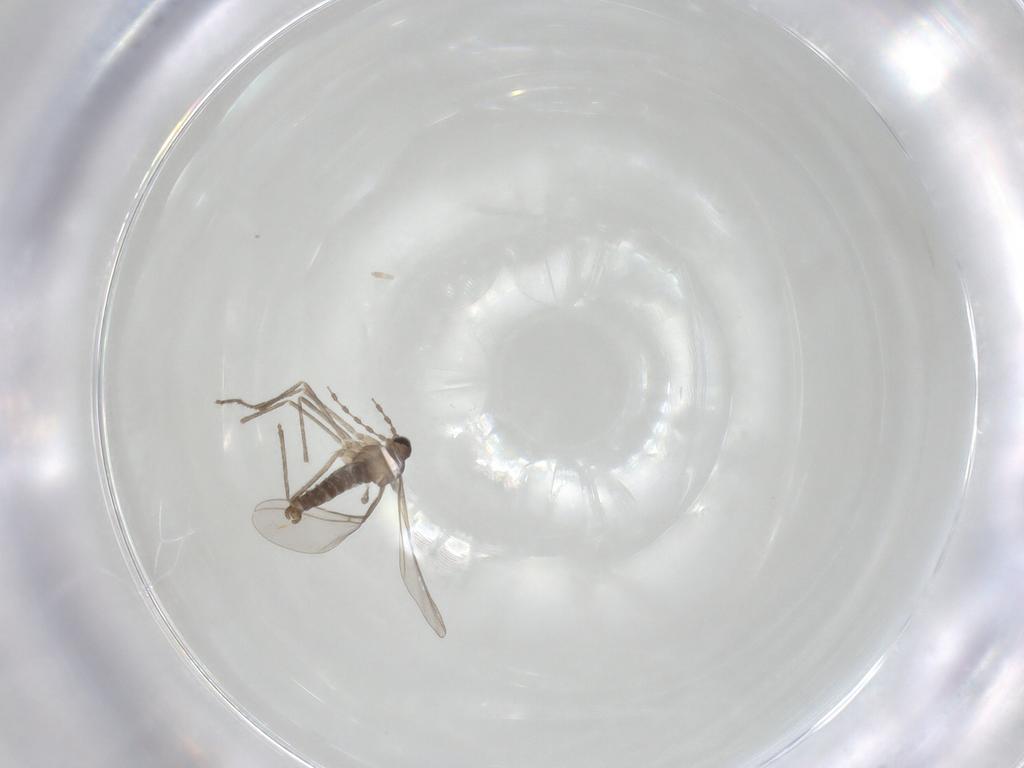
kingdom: Animalia
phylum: Arthropoda
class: Insecta
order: Diptera
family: Cecidomyiidae
